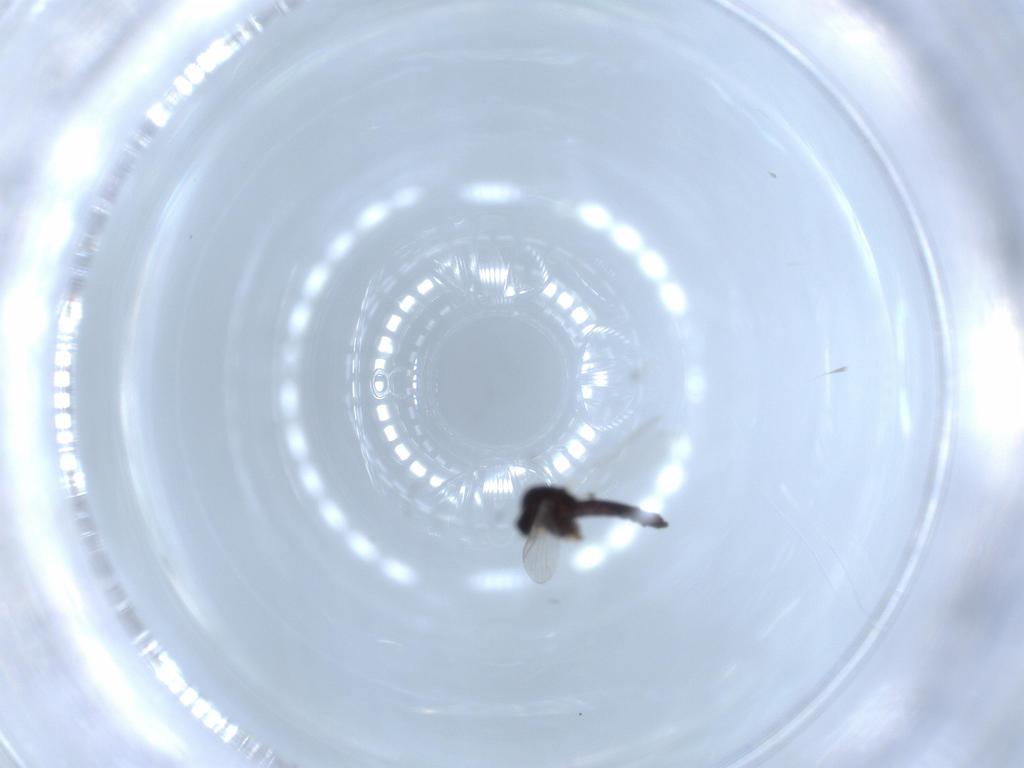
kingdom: Animalia
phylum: Arthropoda
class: Insecta
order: Diptera
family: Chironomidae
